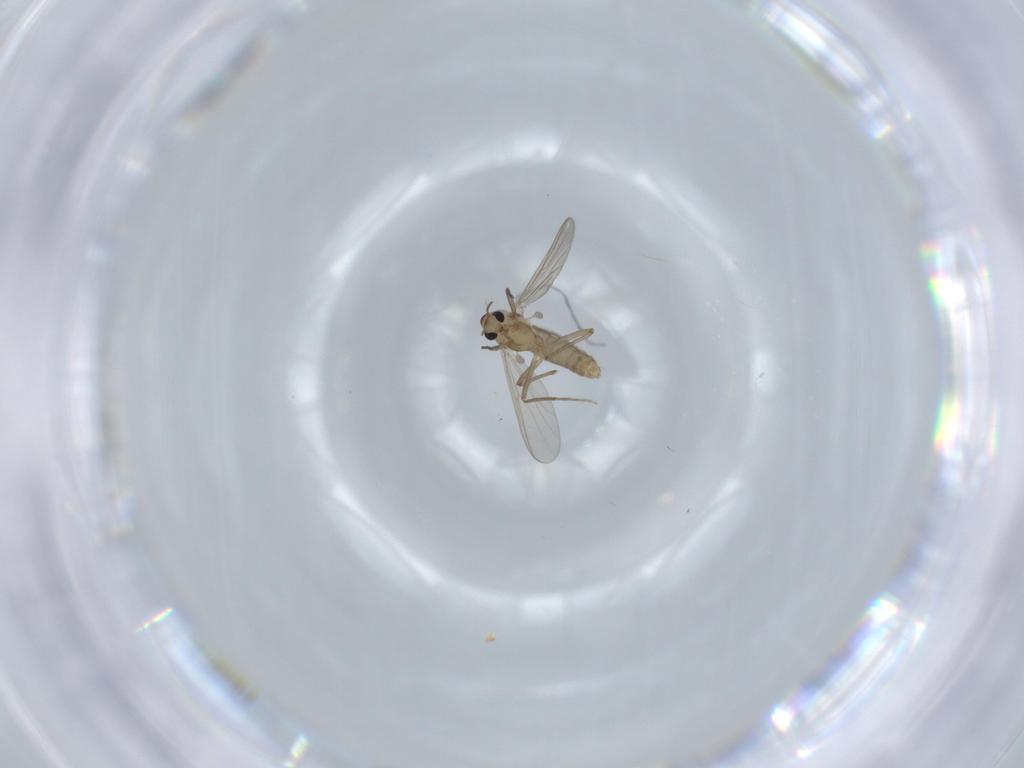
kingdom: Animalia
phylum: Arthropoda
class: Insecta
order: Diptera
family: Chironomidae
